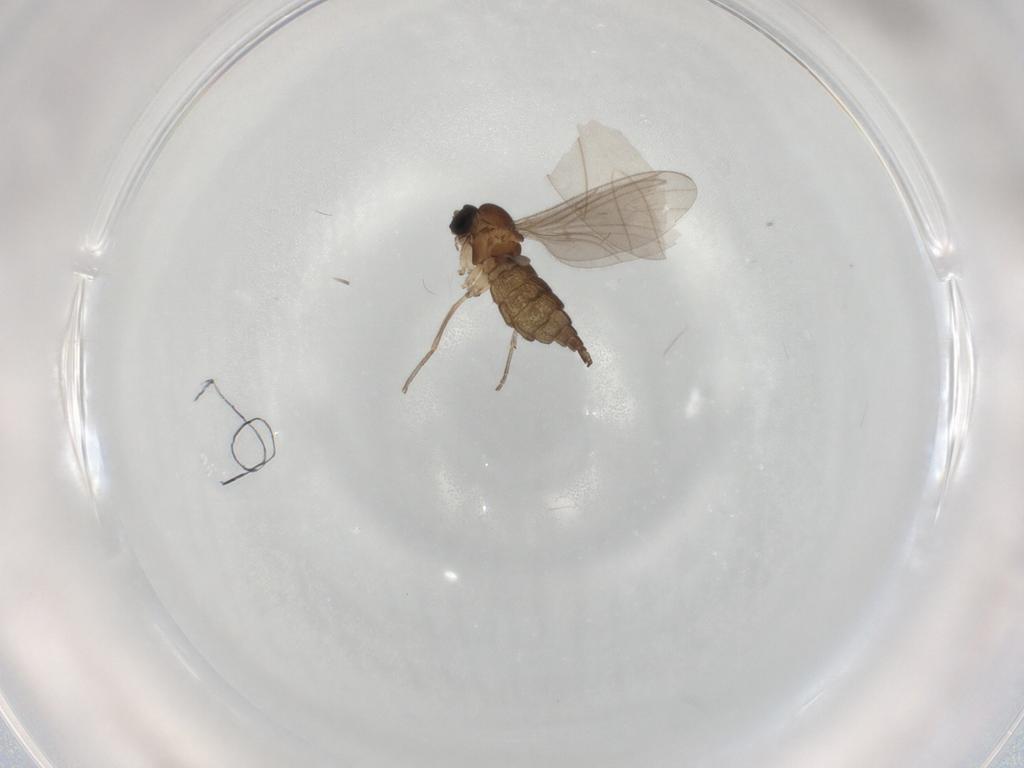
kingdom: Animalia
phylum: Arthropoda
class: Insecta
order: Diptera
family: Sciaridae
